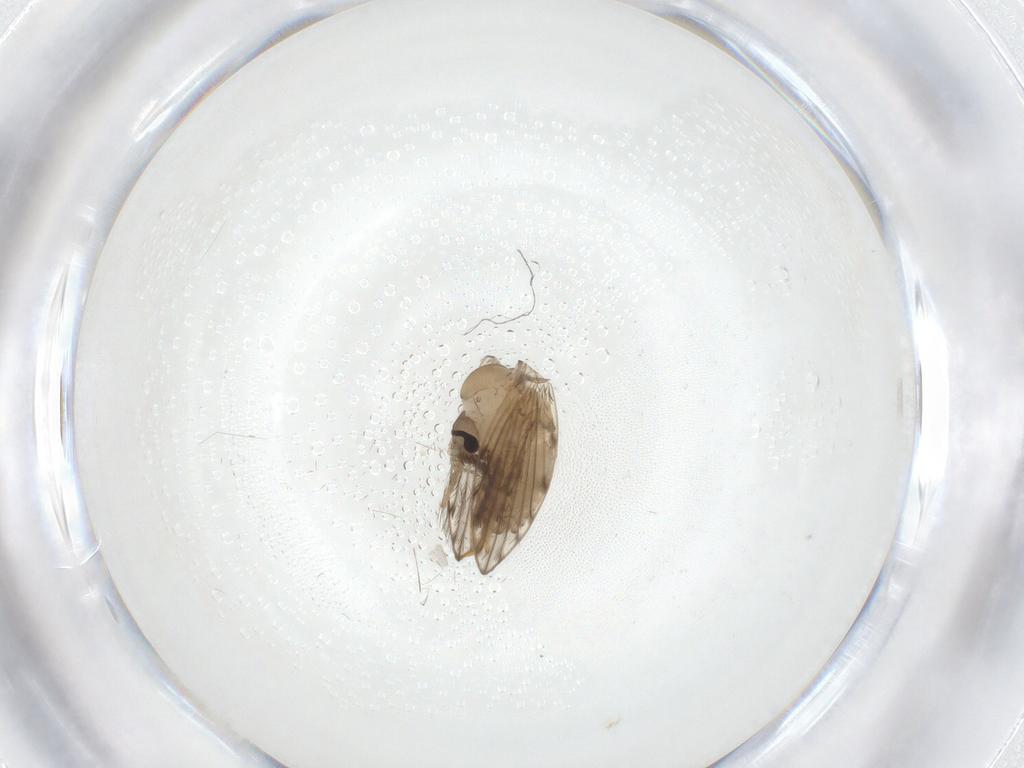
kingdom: Animalia
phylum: Arthropoda
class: Insecta
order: Diptera
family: Psychodidae
